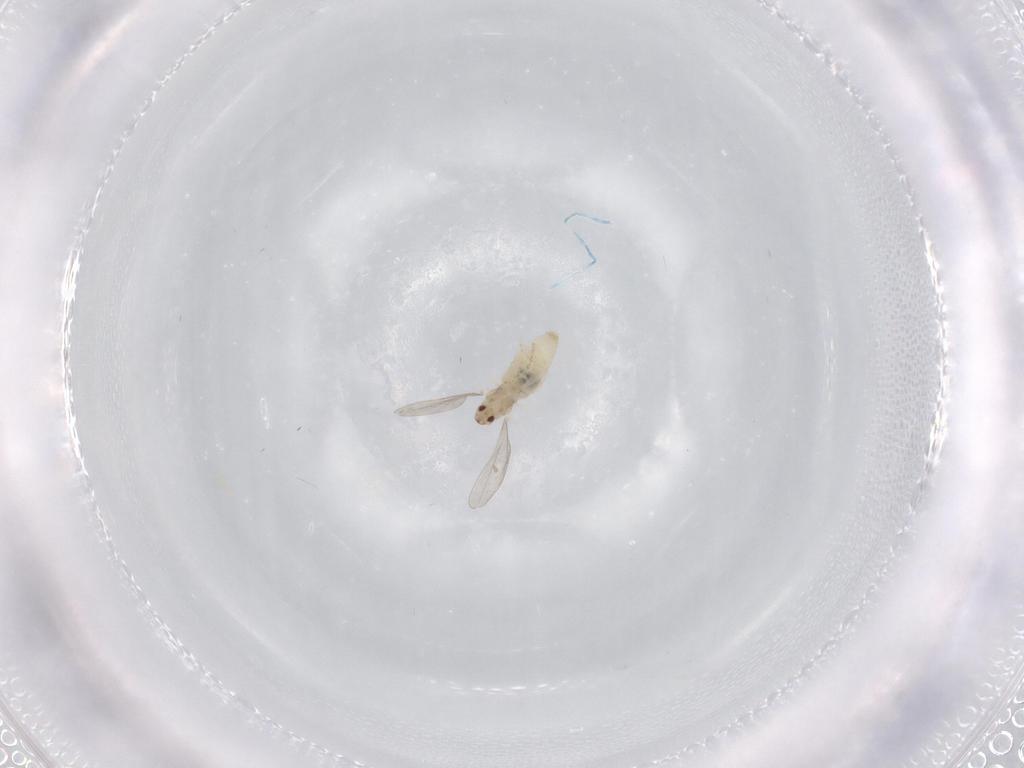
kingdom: Animalia
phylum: Arthropoda
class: Insecta
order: Diptera
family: Cecidomyiidae
